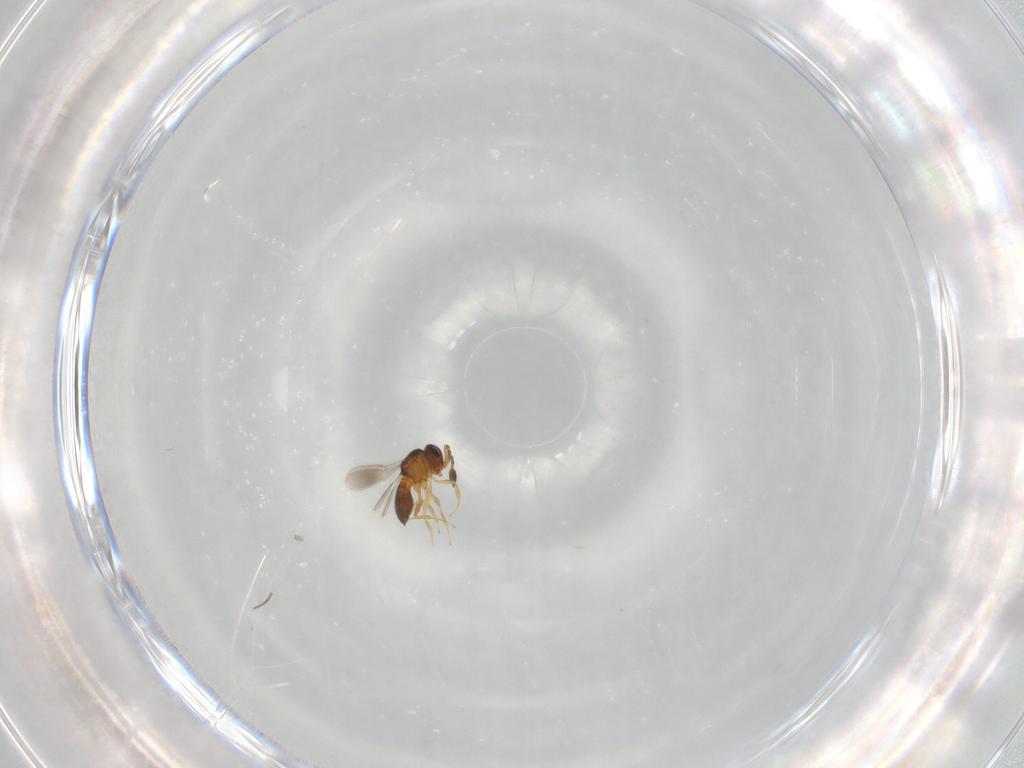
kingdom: Animalia
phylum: Arthropoda
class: Insecta
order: Hymenoptera
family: Scelionidae
